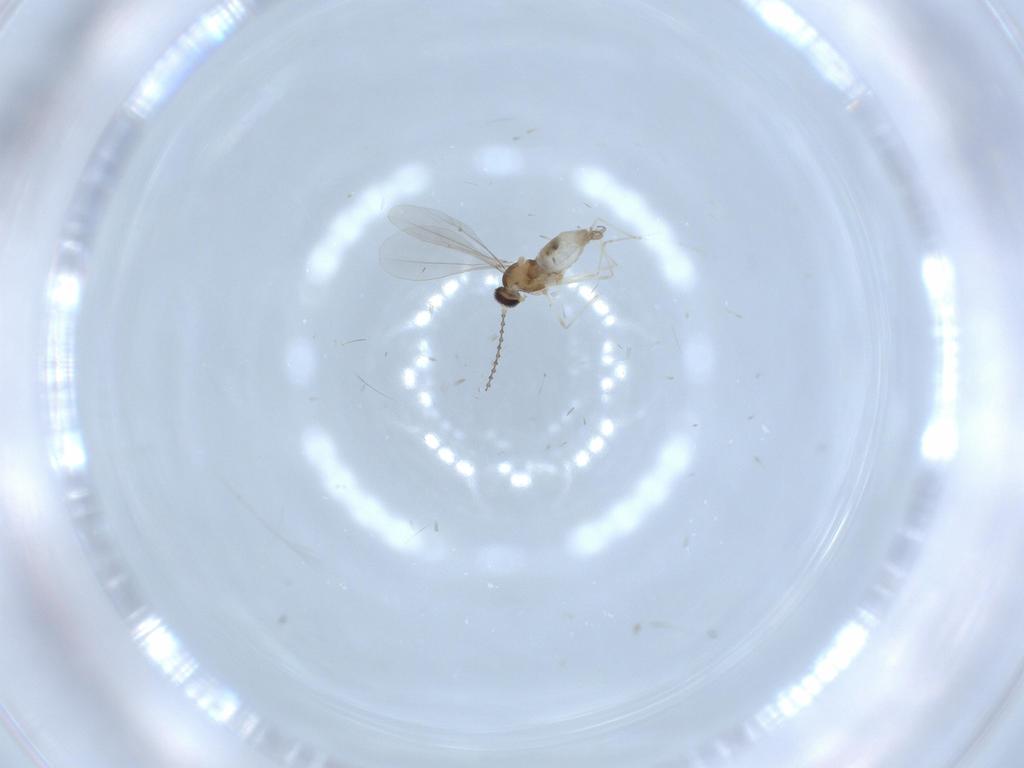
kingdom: Animalia
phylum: Arthropoda
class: Insecta
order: Diptera
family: Cecidomyiidae
